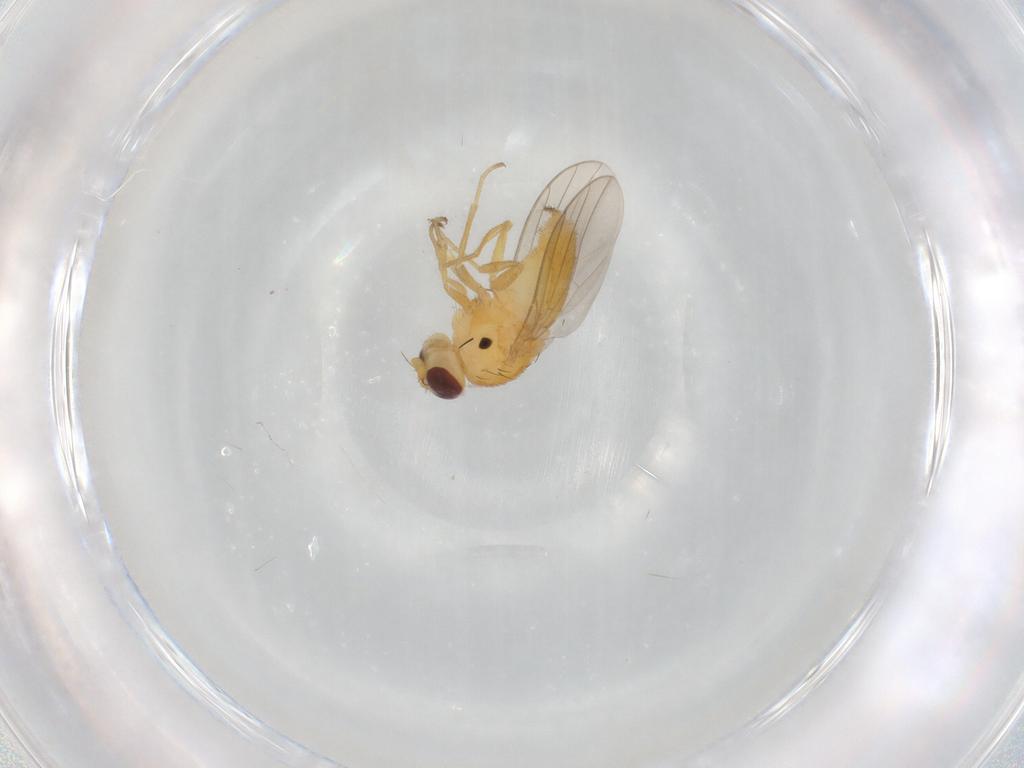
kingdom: Animalia
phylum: Arthropoda
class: Insecta
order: Diptera
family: Chloropidae
